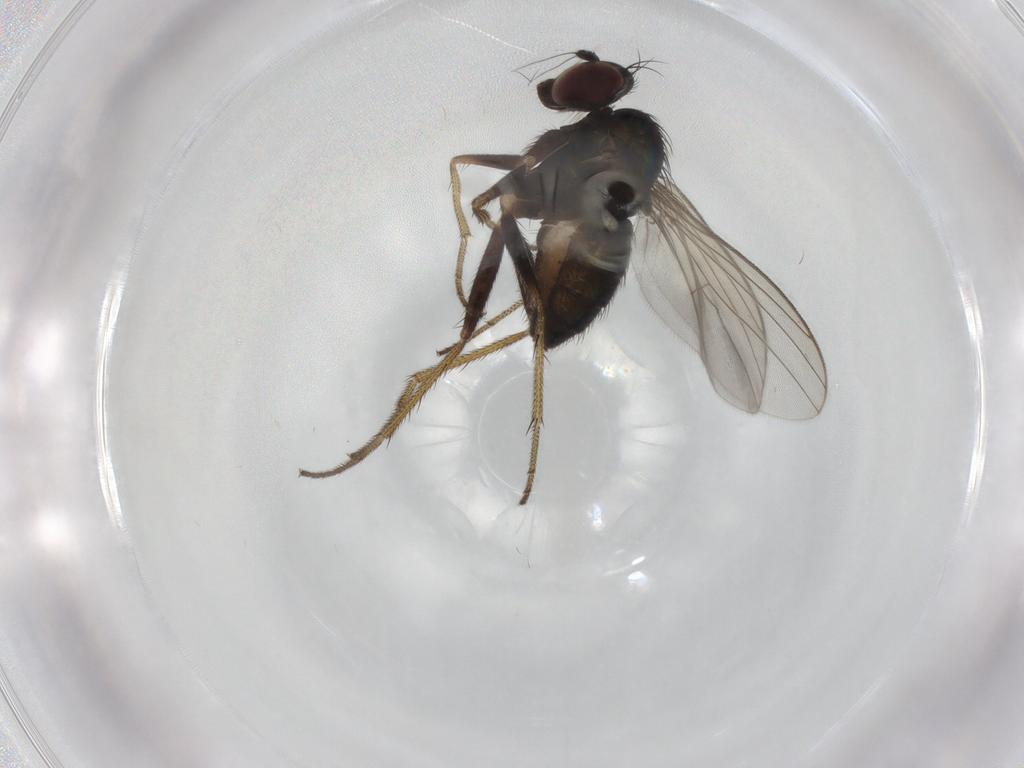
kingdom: Animalia
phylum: Arthropoda
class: Insecta
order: Diptera
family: Dolichopodidae
